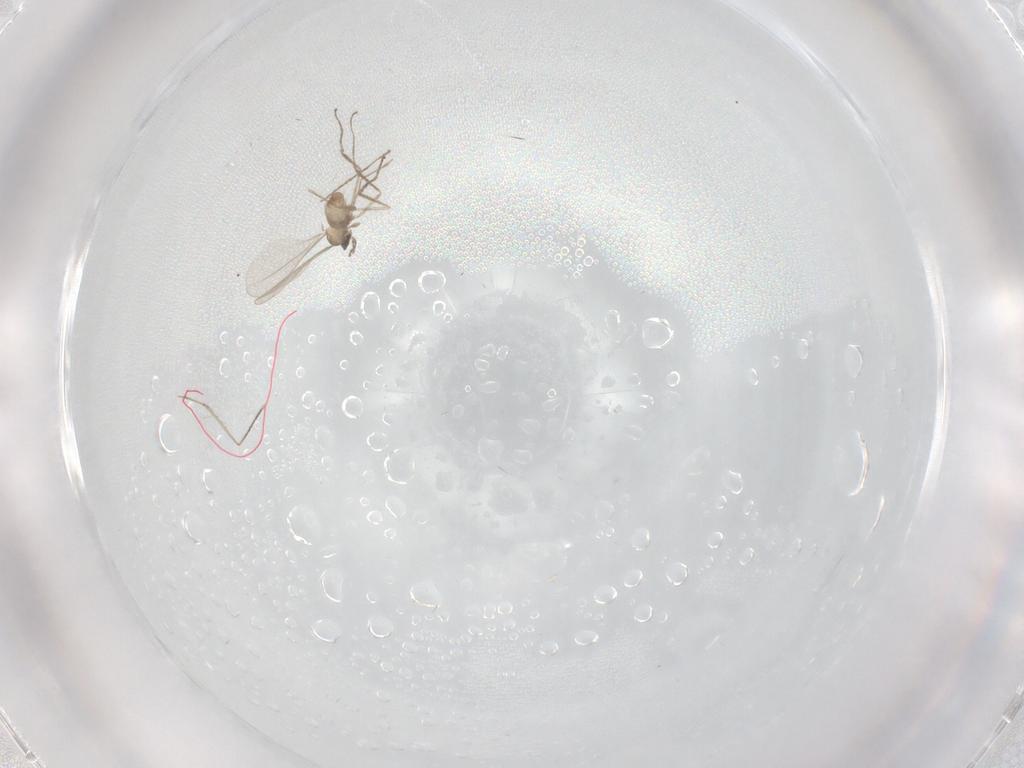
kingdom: Animalia
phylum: Arthropoda
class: Insecta
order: Diptera
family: Cecidomyiidae
